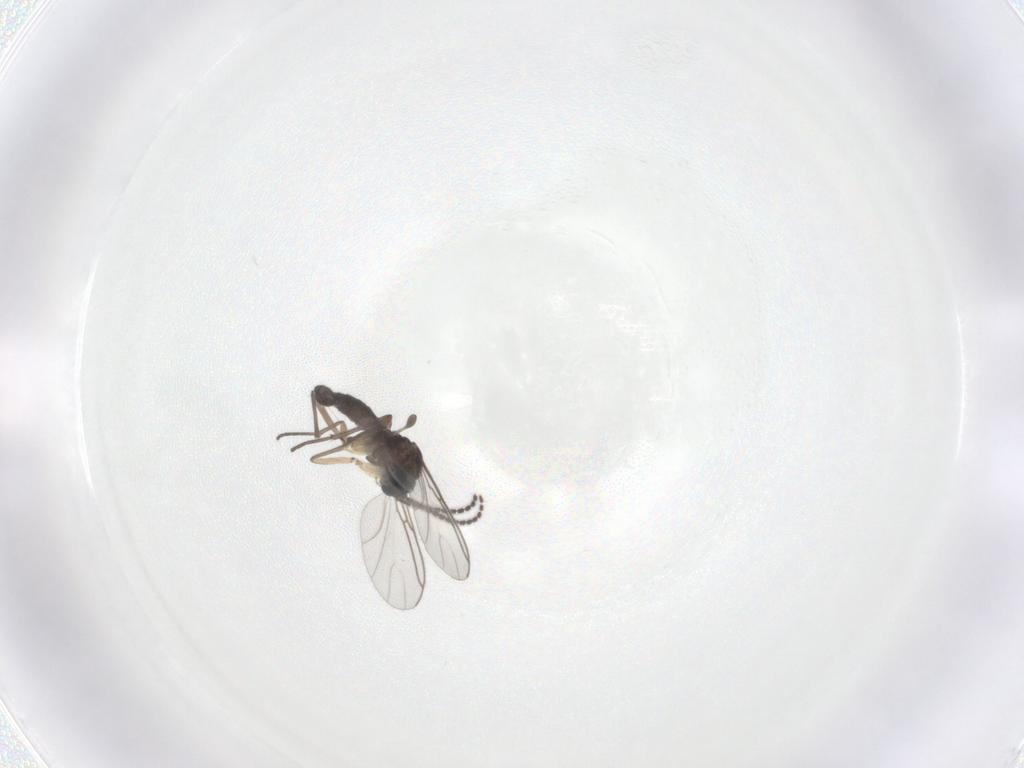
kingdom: Animalia
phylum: Arthropoda
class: Insecta
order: Diptera
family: Sciaridae
